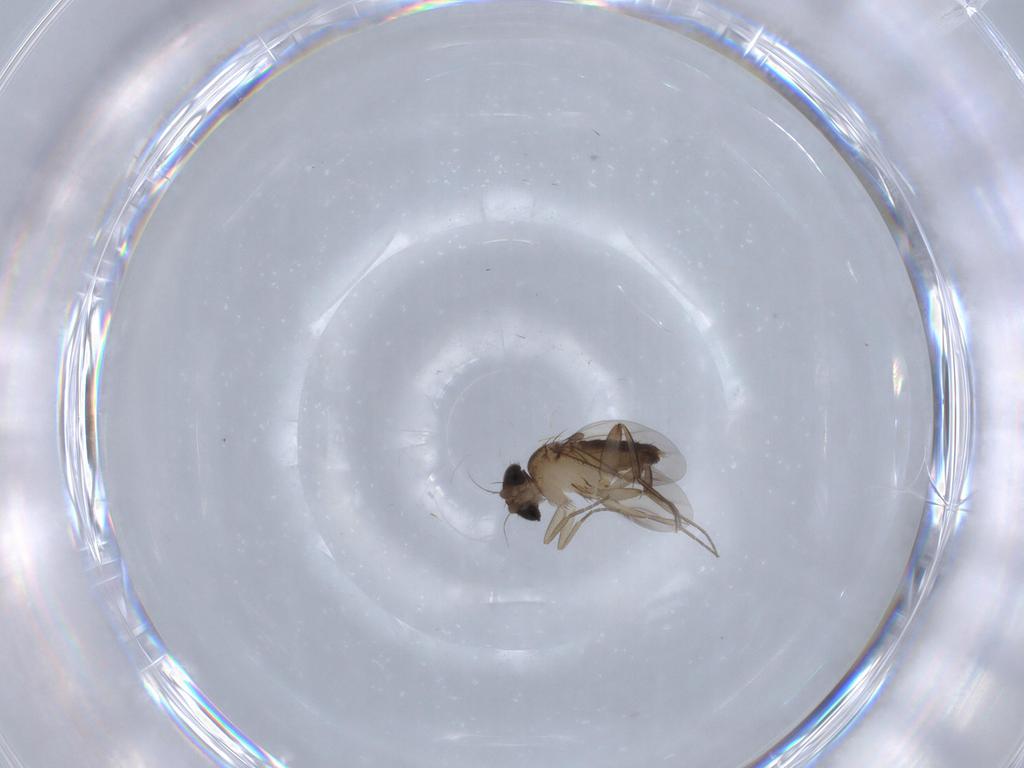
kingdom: Animalia
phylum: Arthropoda
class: Insecta
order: Diptera
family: Phoridae
